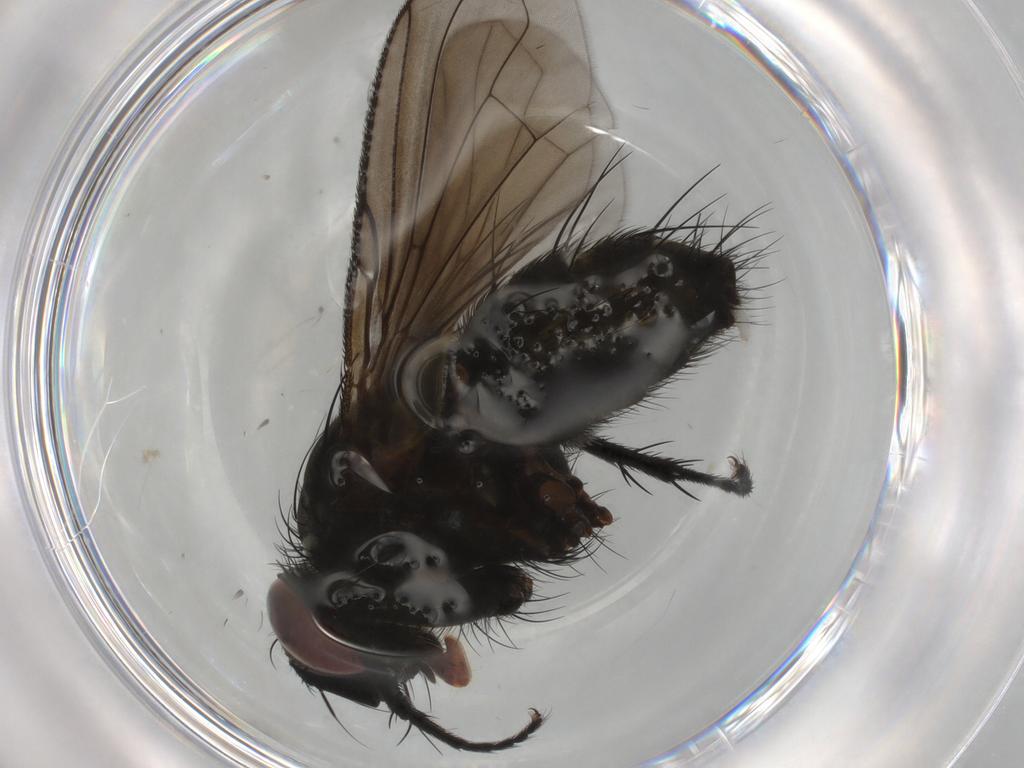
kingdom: Animalia
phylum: Arthropoda
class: Insecta
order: Diptera
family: Tachinidae
